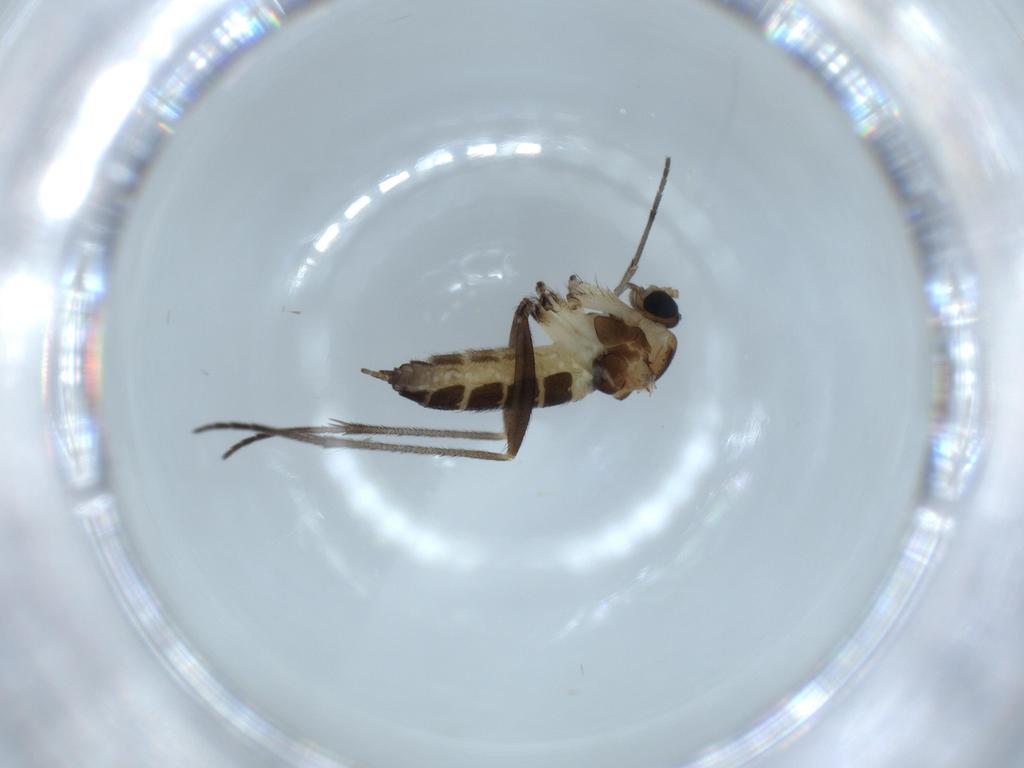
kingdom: Animalia
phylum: Arthropoda
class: Insecta
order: Diptera
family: Sciaridae
